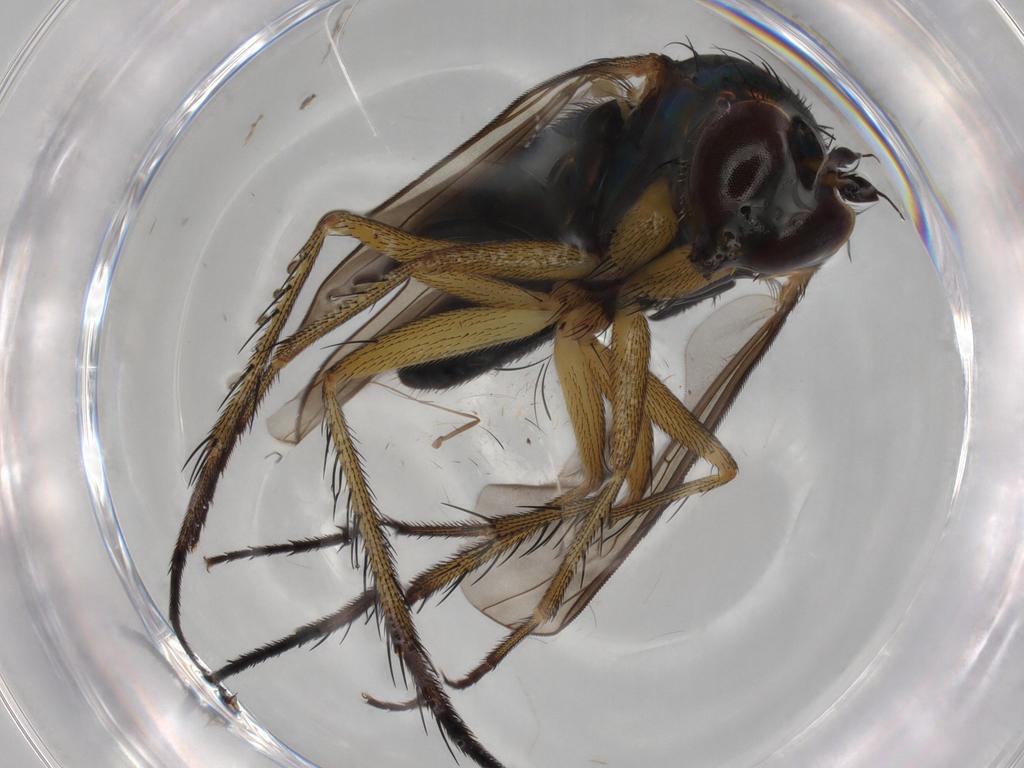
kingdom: Animalia
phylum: Arthropoda
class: Insecta
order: Diptera
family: Dolichopodidae
